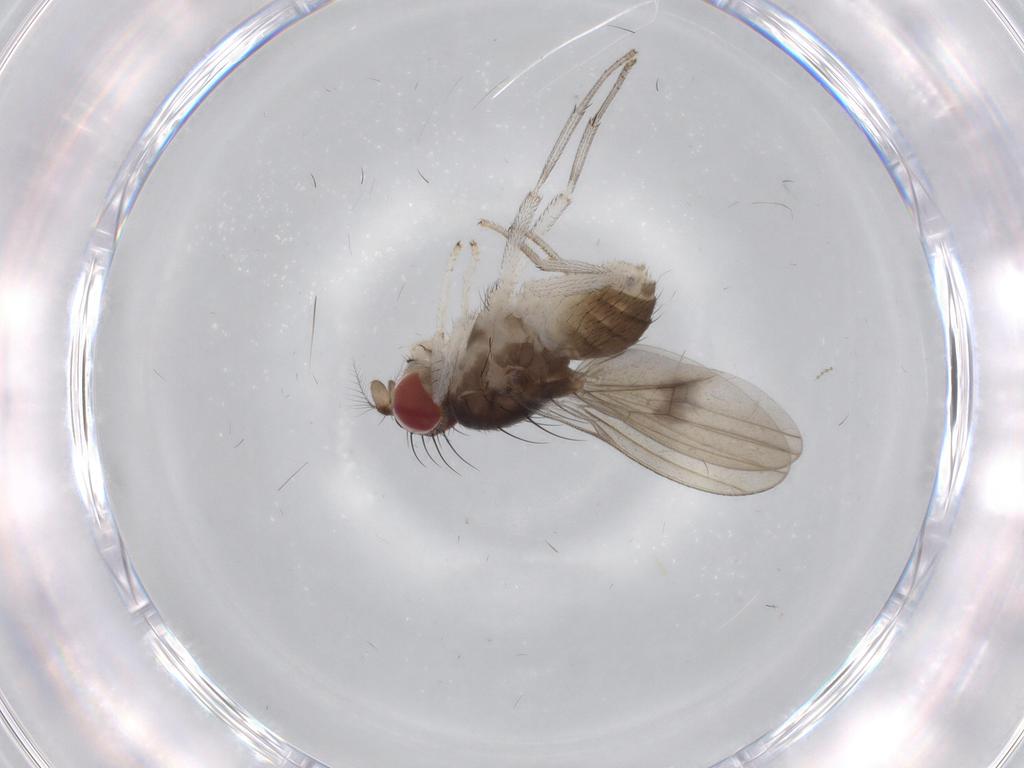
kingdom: Animalia
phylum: Arthropoda
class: Insecta
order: Diptera
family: Lauxaniidae
